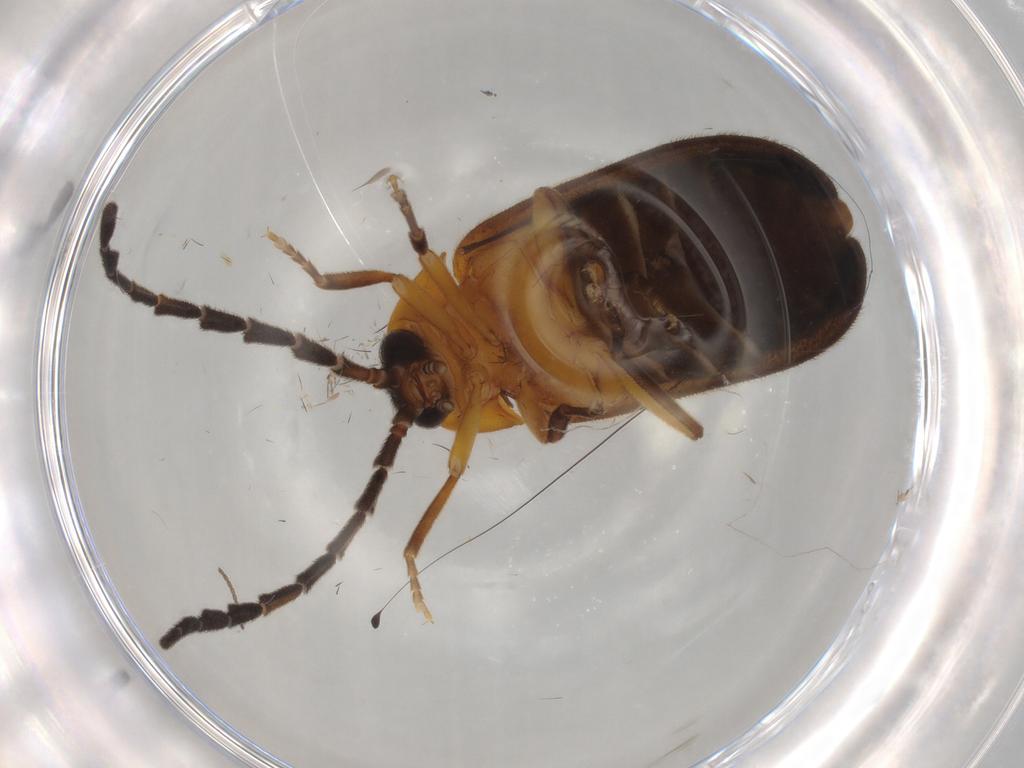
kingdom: Animalia
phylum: Arthropoda
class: Insecta
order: Coleoptera
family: Lampyridae
